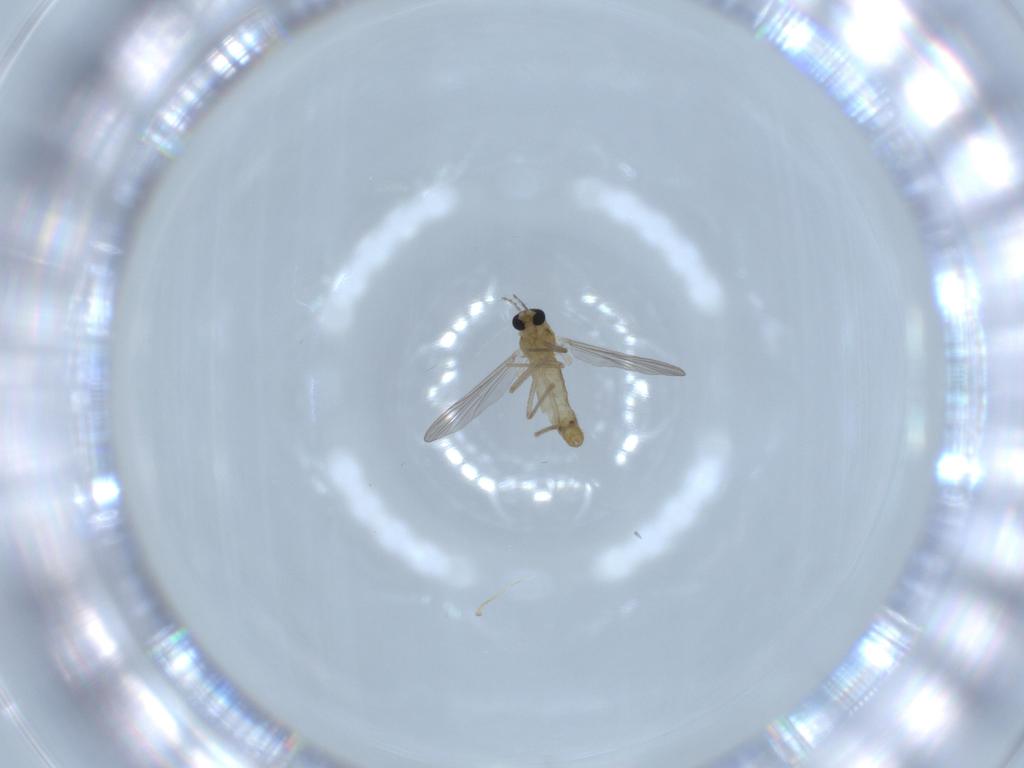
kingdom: Animalia
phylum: Arthropoda
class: Insecta
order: Diptera
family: Chironomidae
